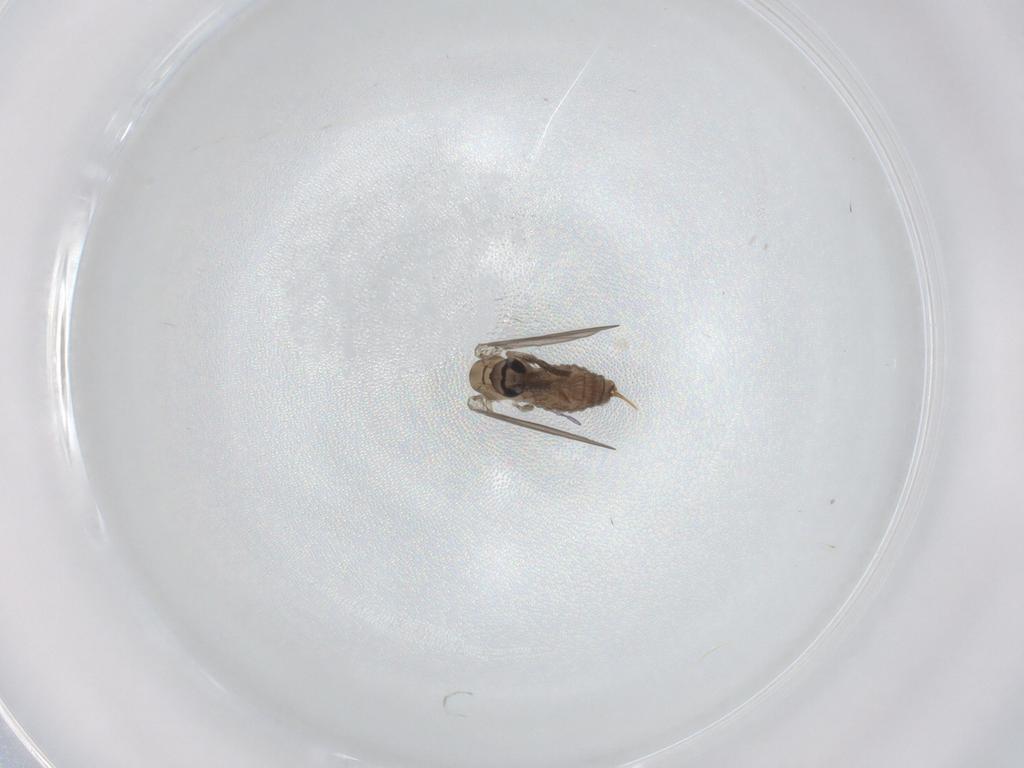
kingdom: Animalia
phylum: Arthropoda
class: Insecta
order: Diptera
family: Psychodidae
